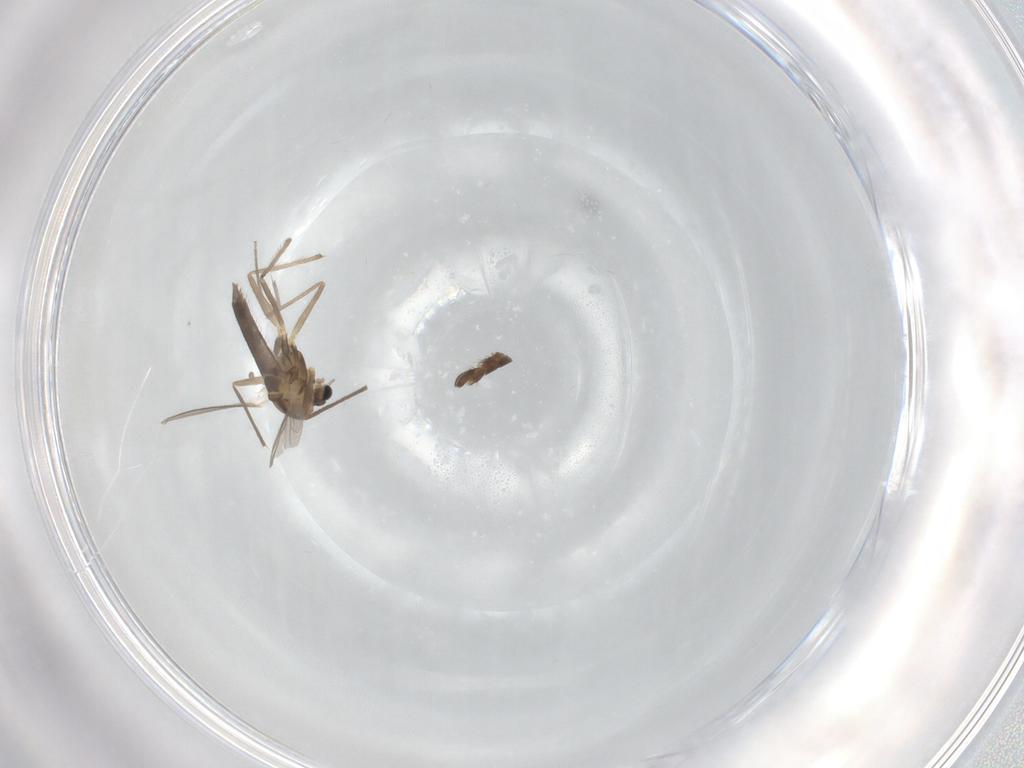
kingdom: Animalia
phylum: Arthropoda
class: Insecta
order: Diptera
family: Chironomidae
